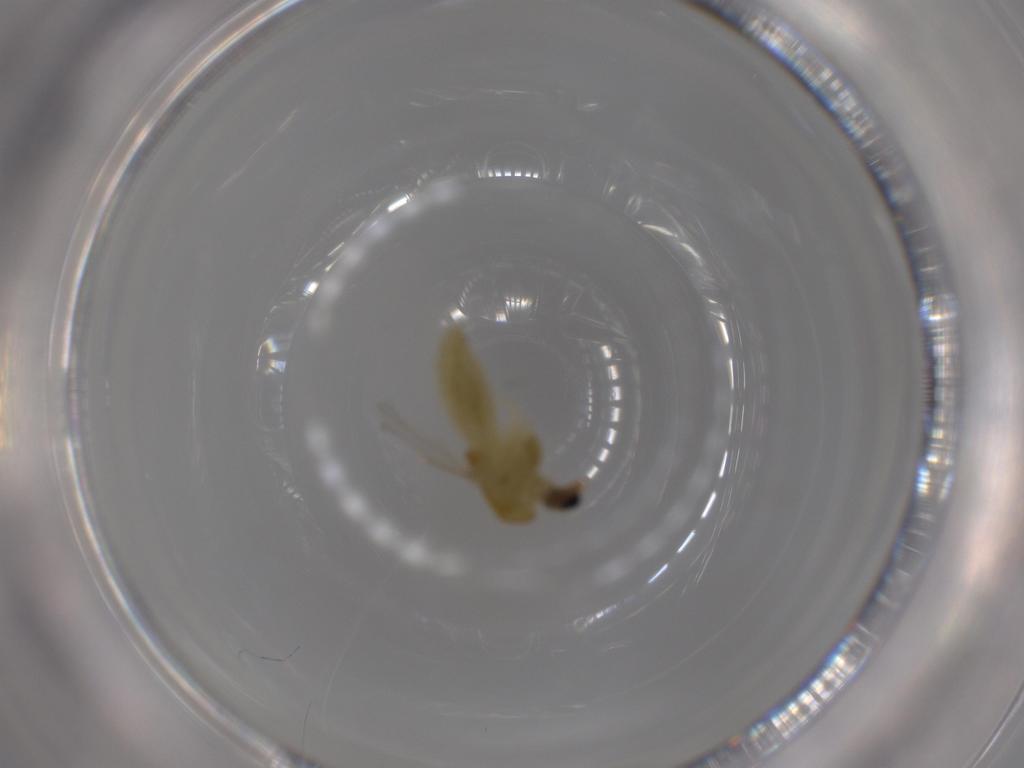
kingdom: Animalia
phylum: Arthropoda
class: Insecta
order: Diptera
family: Chironomidae
